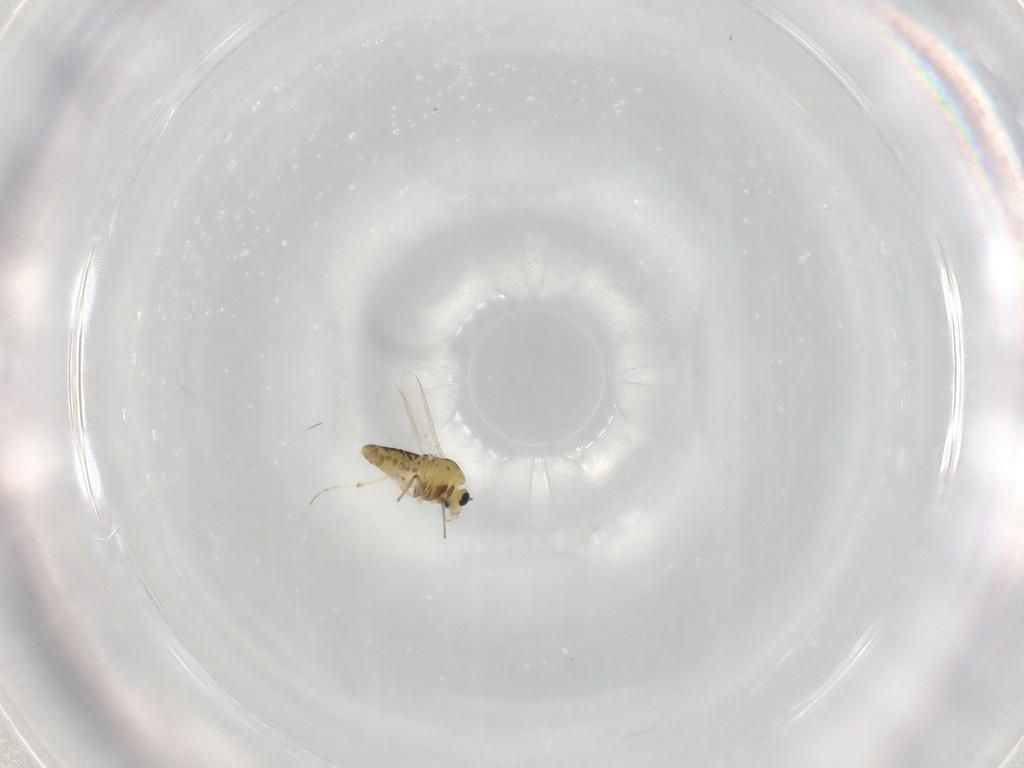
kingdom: Animalia
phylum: Arthropoda
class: Insecta
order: Diptera
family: Chironomidae
